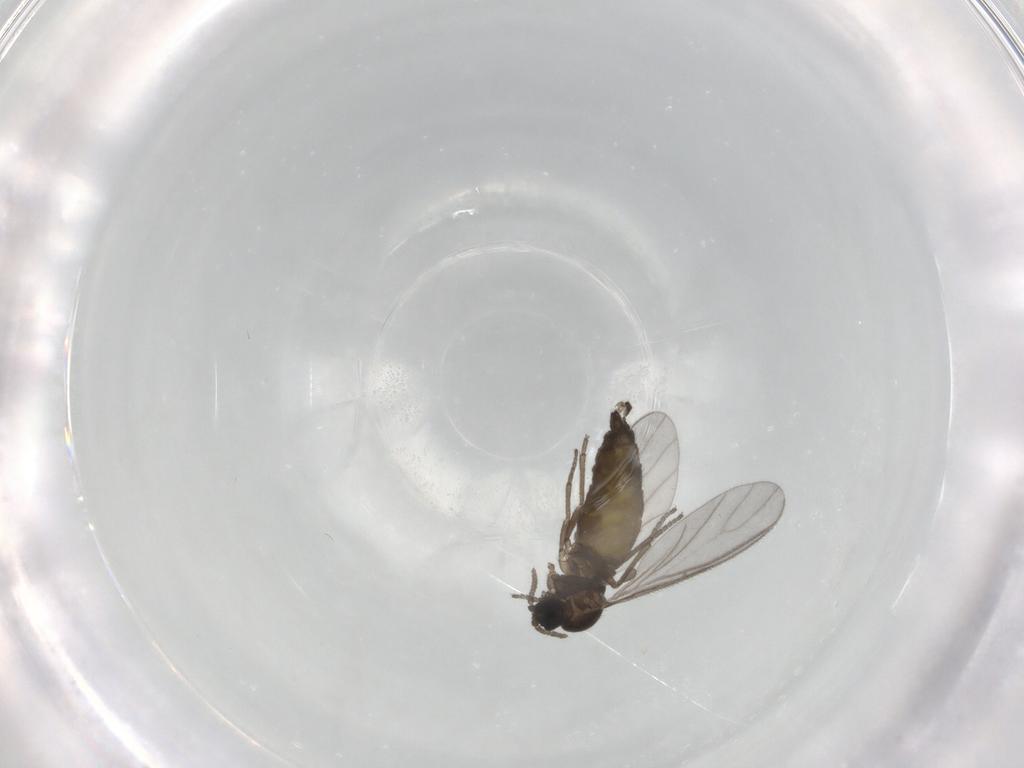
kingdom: Animalia
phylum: Arthropoda
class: Insecta
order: Diptera
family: Sciaridae
